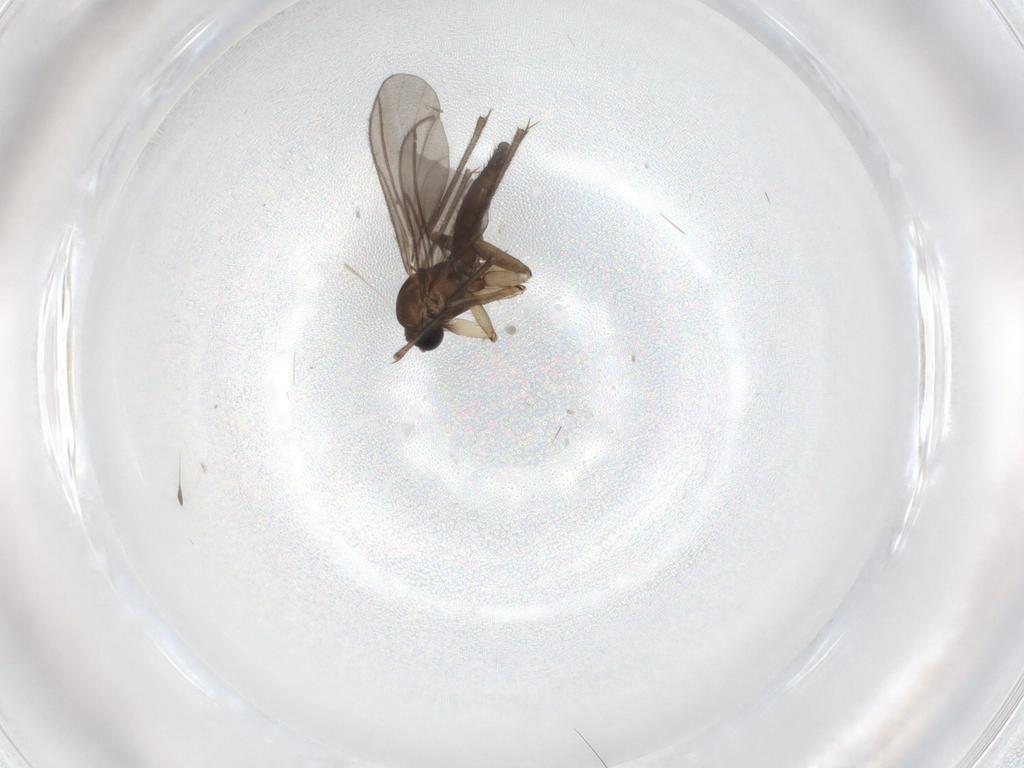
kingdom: Animalia
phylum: Arthropoda
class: Insecta
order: Diptera
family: Sciaridae
